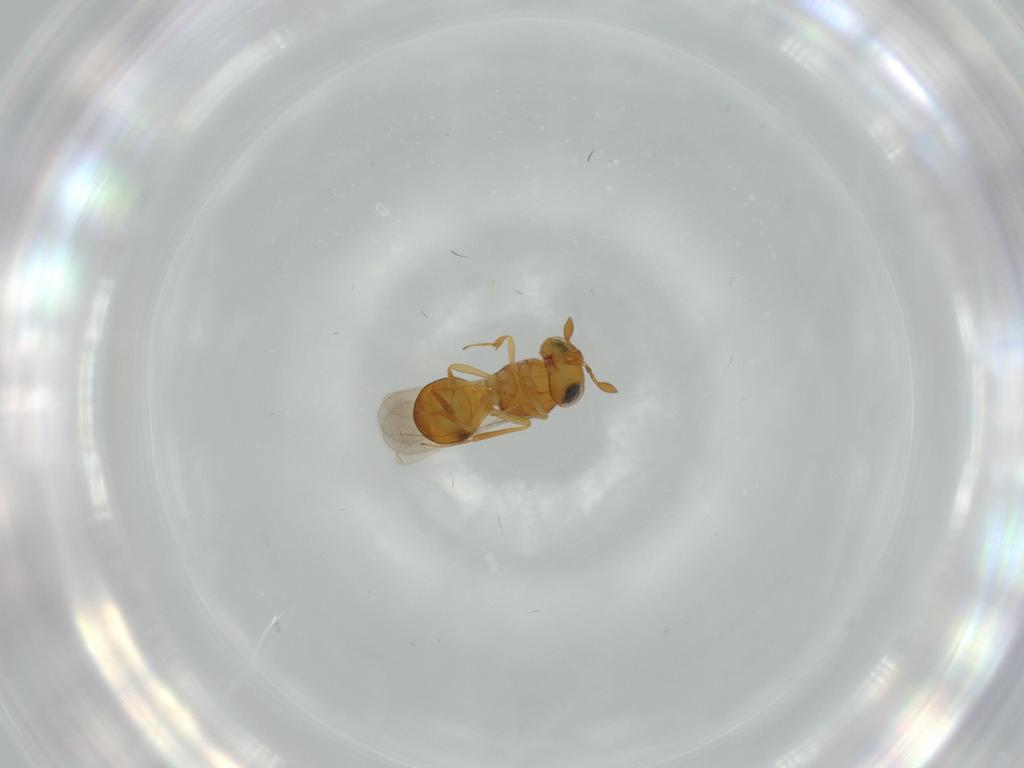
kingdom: Animalia
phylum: Arthropoda
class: Insecta
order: Hymenoptera
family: Scelionidae
